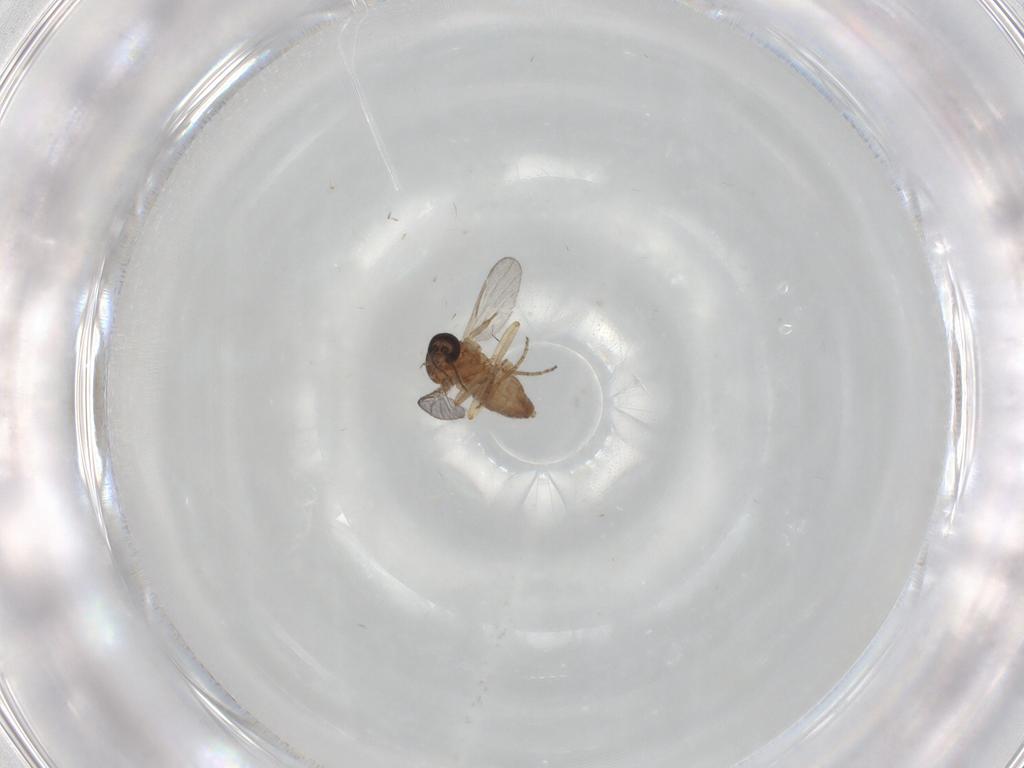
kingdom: Animalia
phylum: Arthropoda
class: Insecta
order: Diptera
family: Ceratopogonidae
